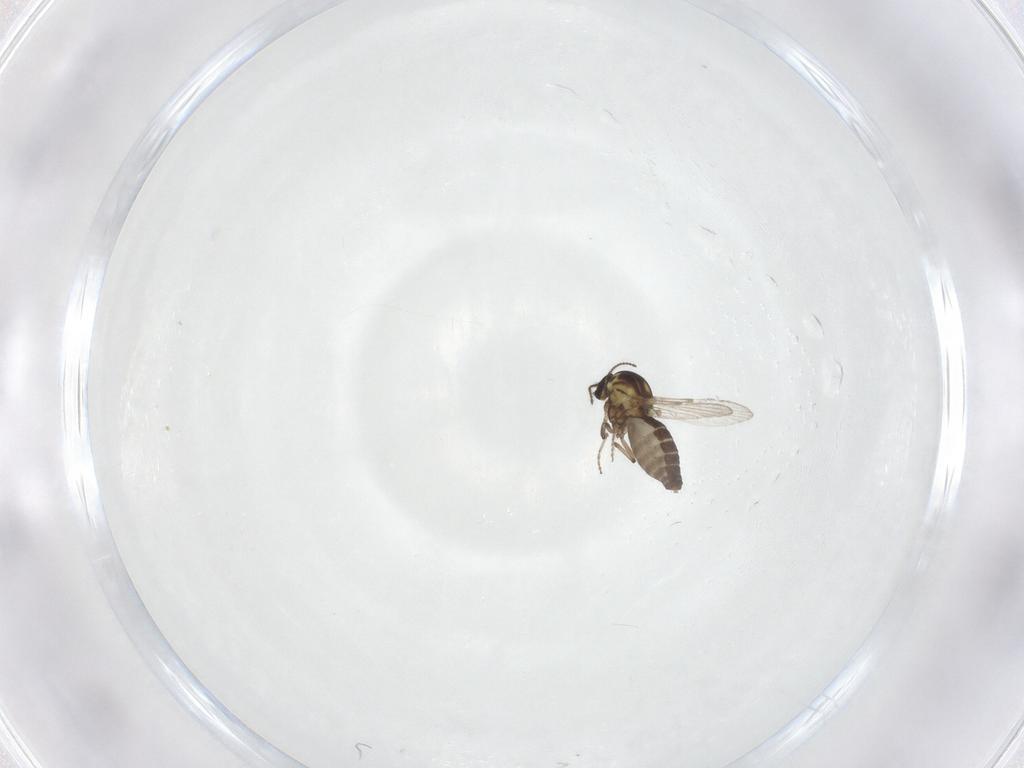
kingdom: Animalia
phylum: Arthropoda
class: Insecta
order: Diptera
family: Ceratopogonidae
